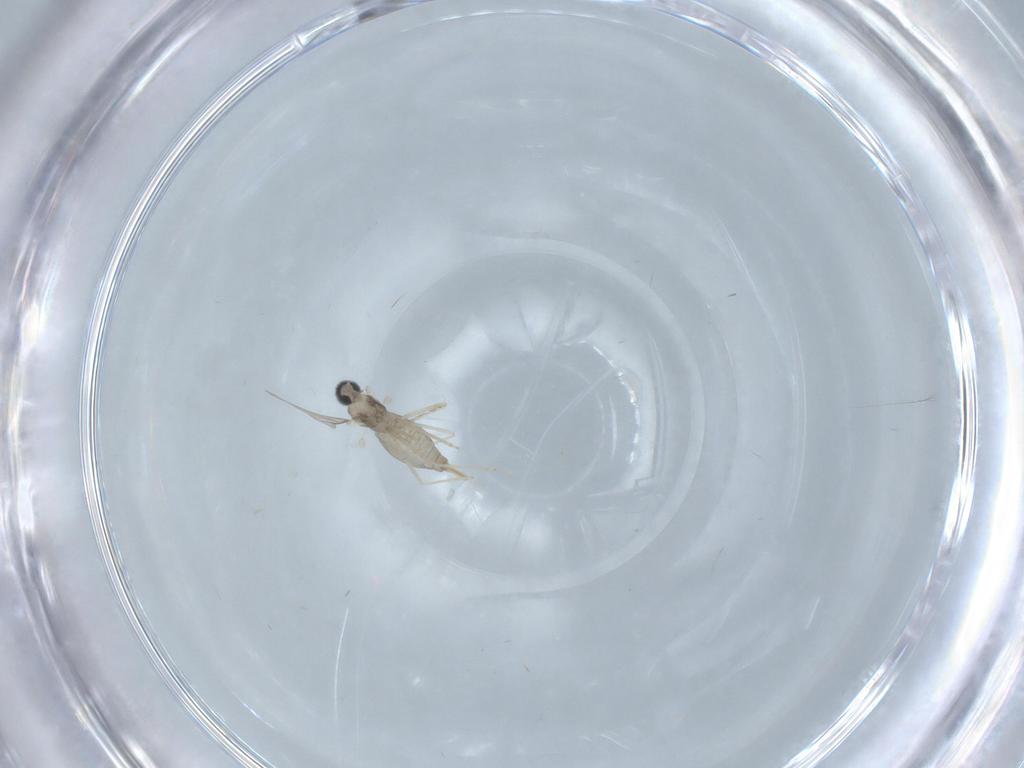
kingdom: Animalia
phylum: Arthropoda
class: Insecta
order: Diptera
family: Cecidomyiidae
